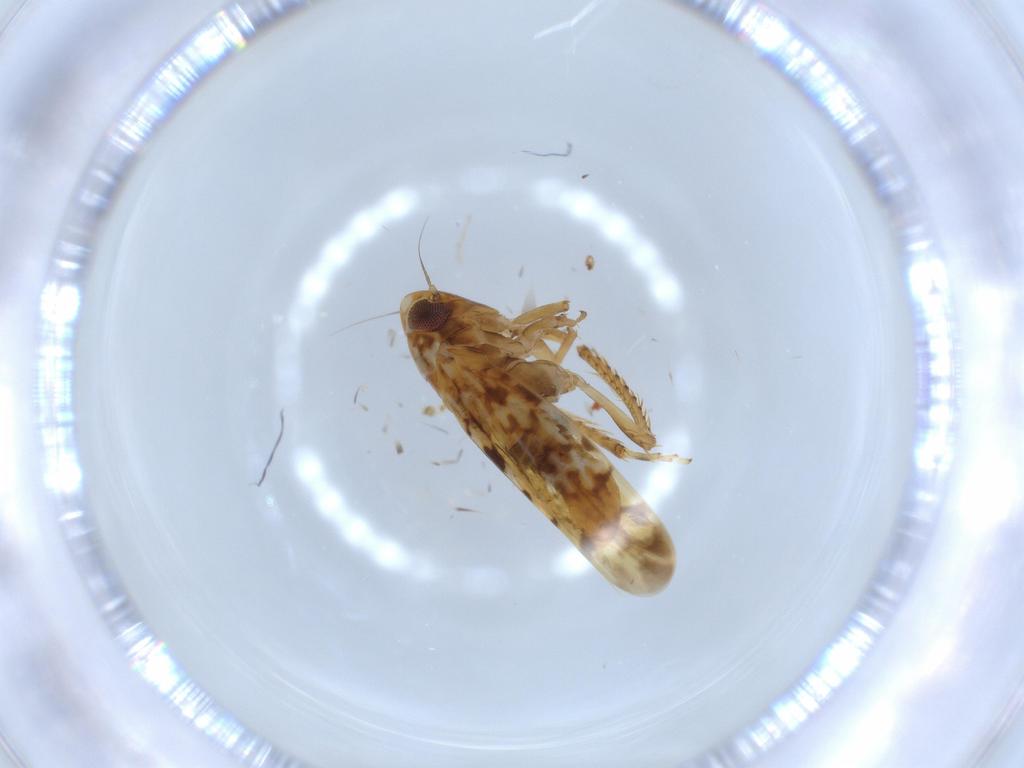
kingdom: Animalia
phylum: Arthropoda
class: Insecta
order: Hemiptera
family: Cicadellidae
